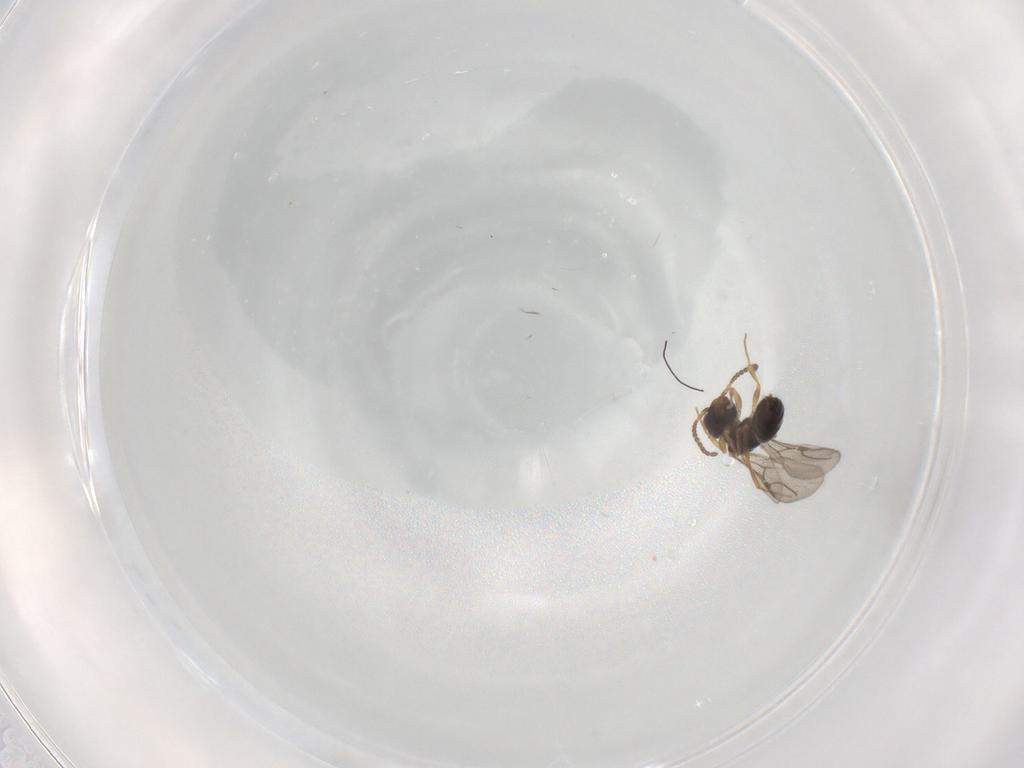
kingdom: Animalia
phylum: Arthropoda
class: Insecta
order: Hymenoptera
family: Bethylidae
